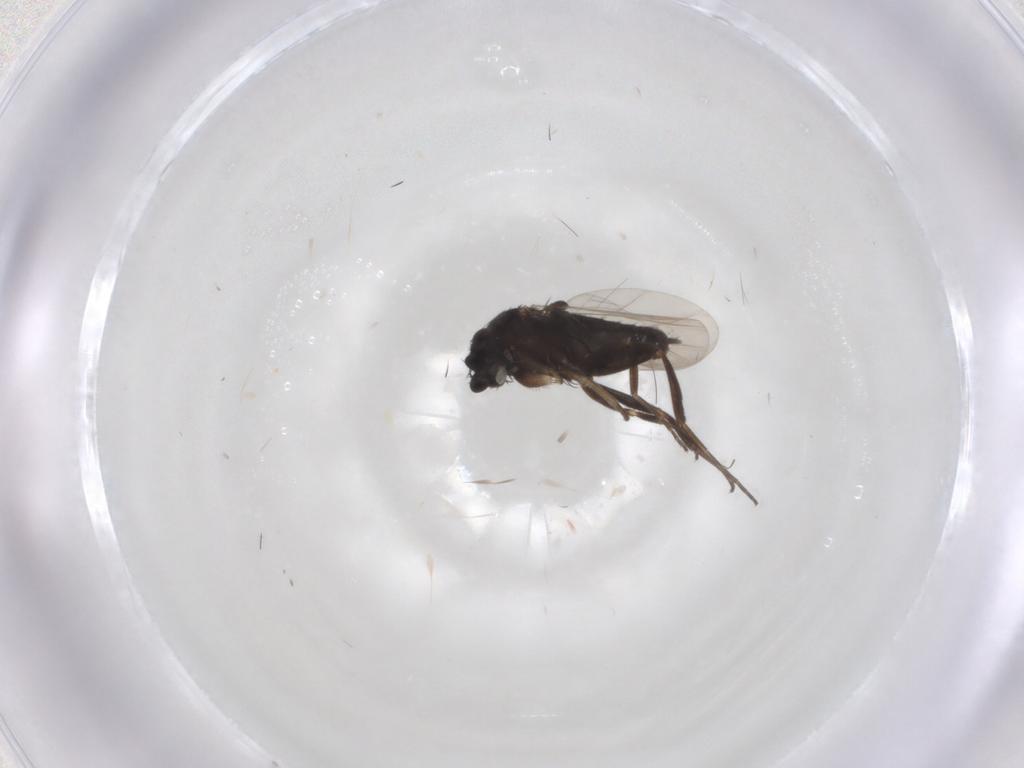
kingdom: Animalia
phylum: Arthropoda
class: Insecta
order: Diptera
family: Phoridae
